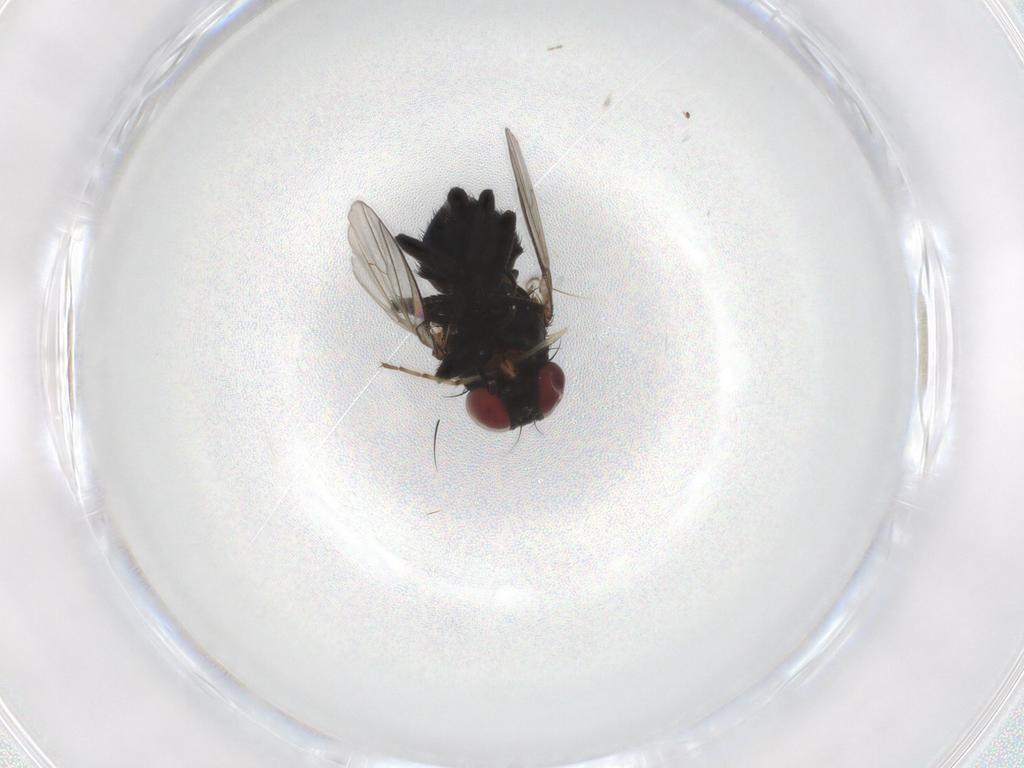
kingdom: Animalia
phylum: Arthropoda
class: Insecta
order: Diptera
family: Agromyzidae
